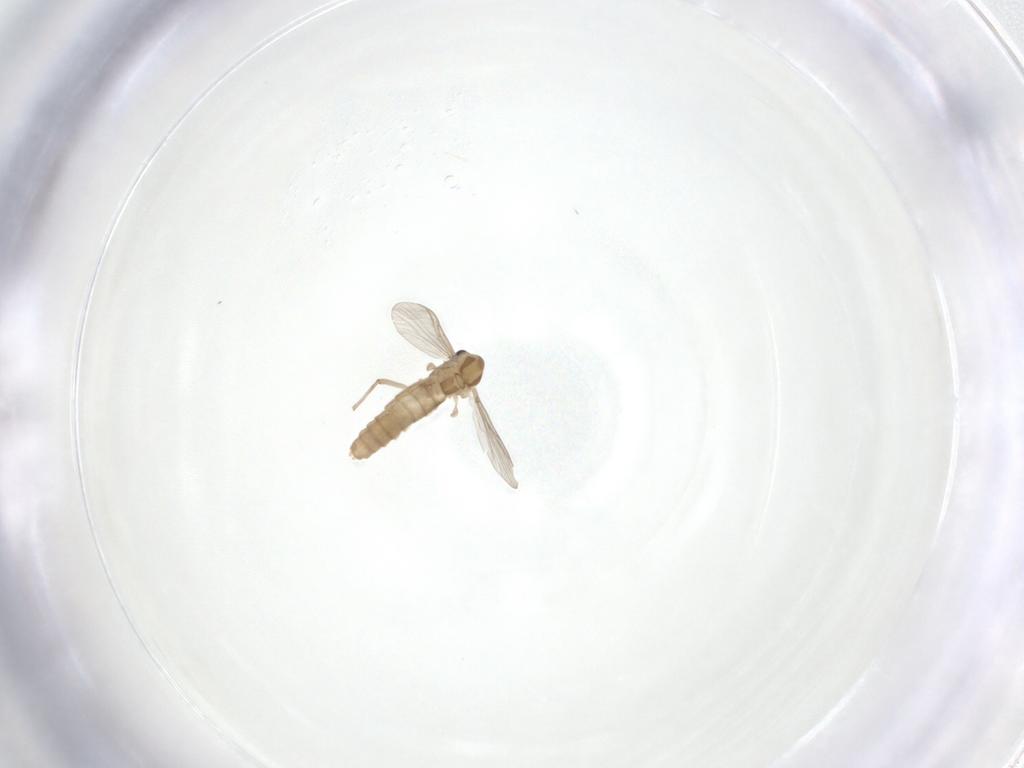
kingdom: Animalia
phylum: Arthropoda
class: Insecta
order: Diptera
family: Chironomidae
